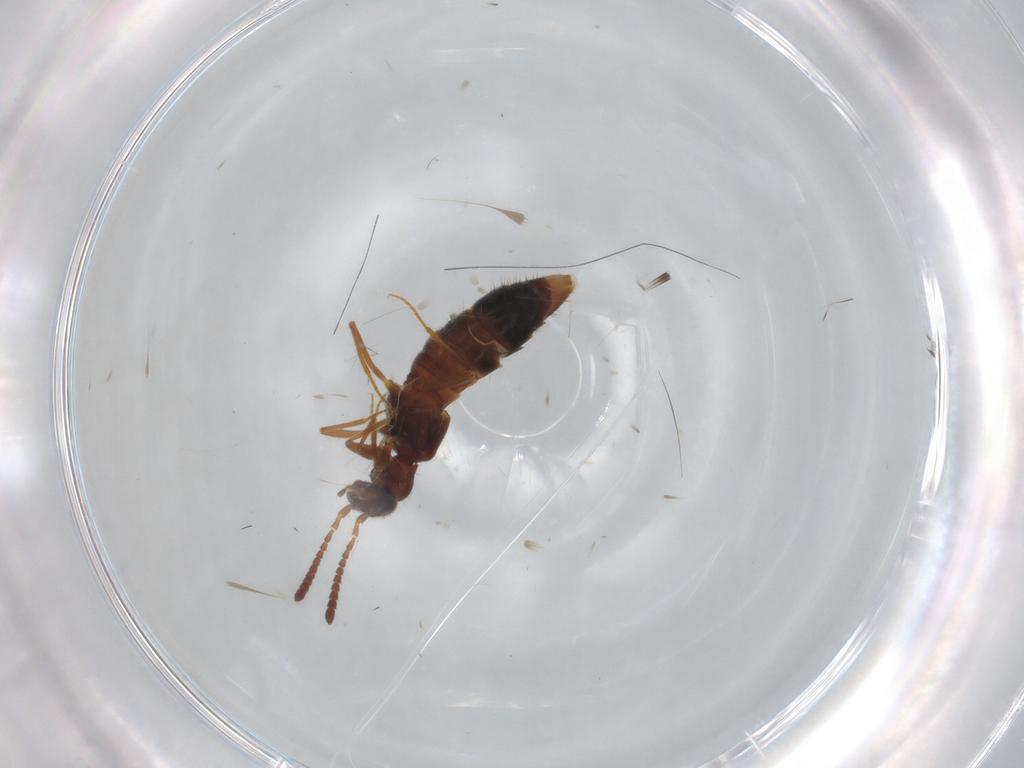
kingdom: Animalia
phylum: Arthropoda
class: Insecta
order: Coleoptera
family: Staphylinidae
